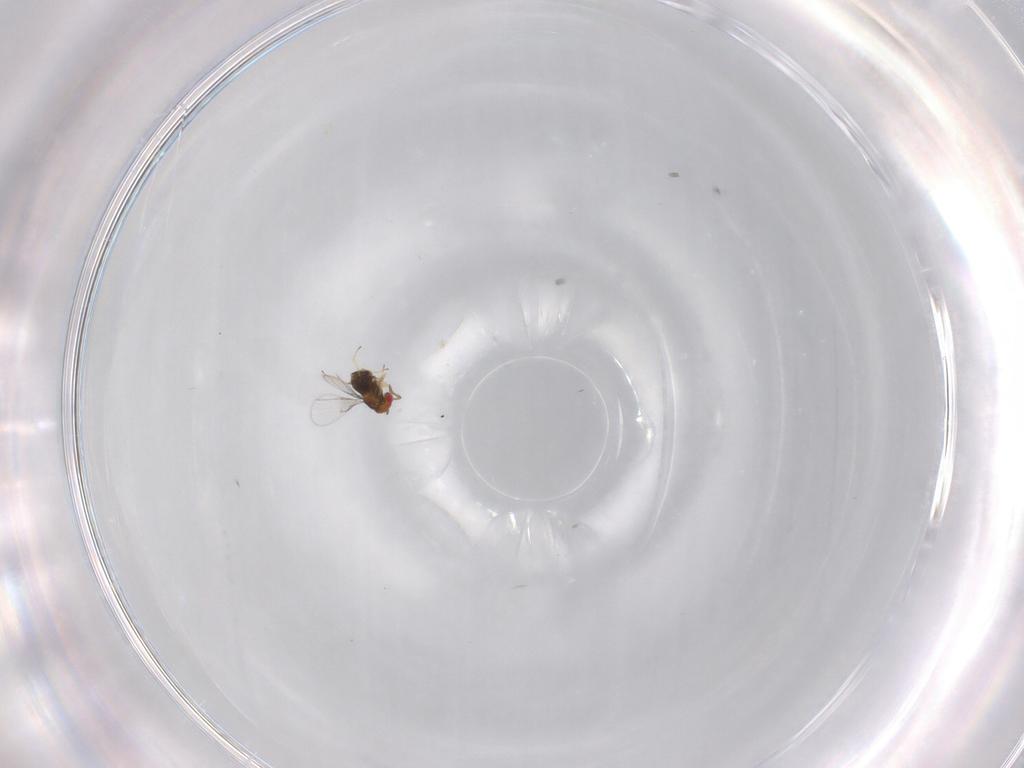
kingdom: Animalia
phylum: Arthropoda
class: Insecta
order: Hymenoptera
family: Trichogrammatidae
